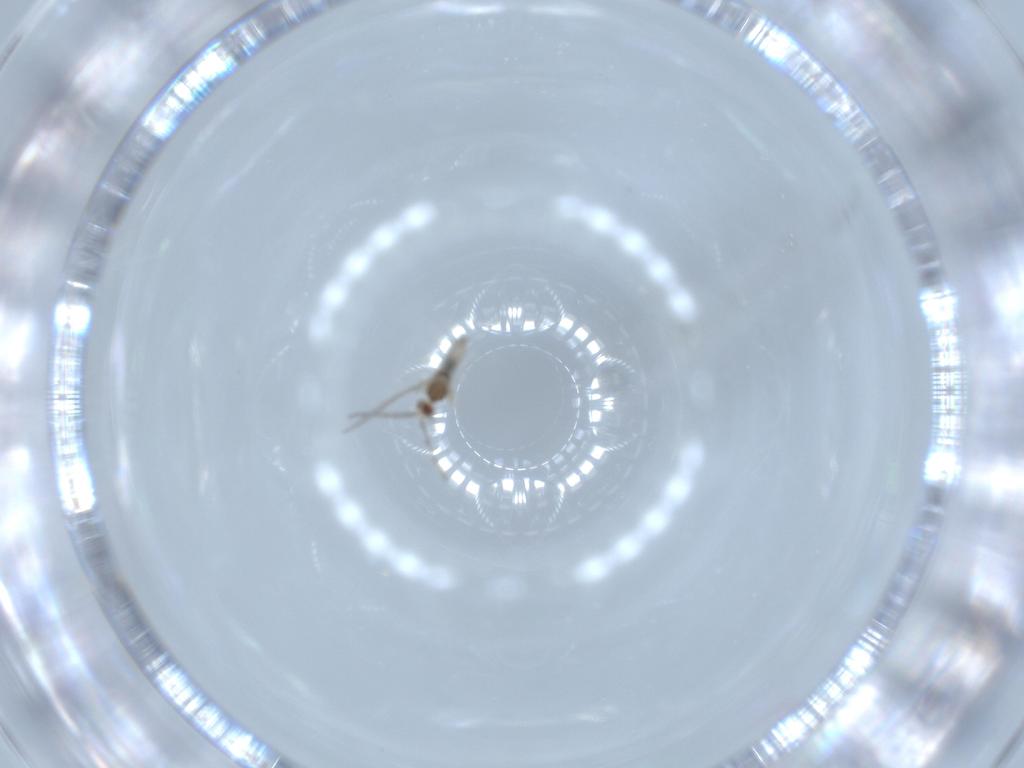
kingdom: Animalia
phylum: Arthropoda
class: Insecta
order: Diptera
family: Cecidomyiidae
